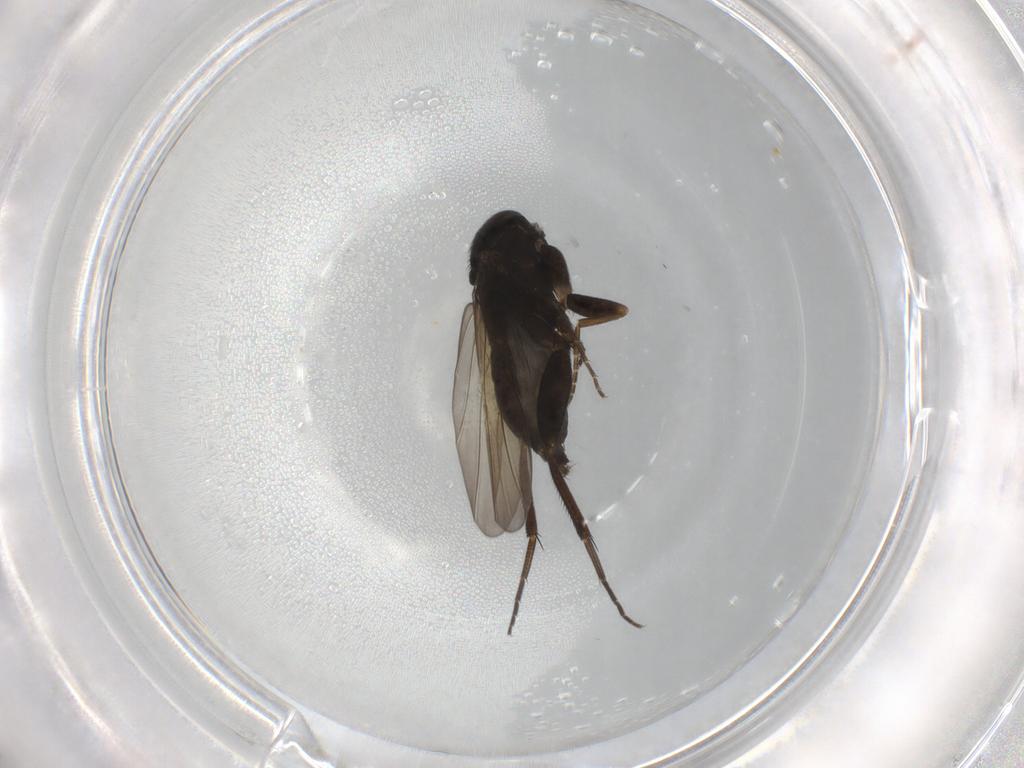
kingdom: Animalia
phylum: Arthropoda
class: Insecta
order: Diptera
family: Phoridae
